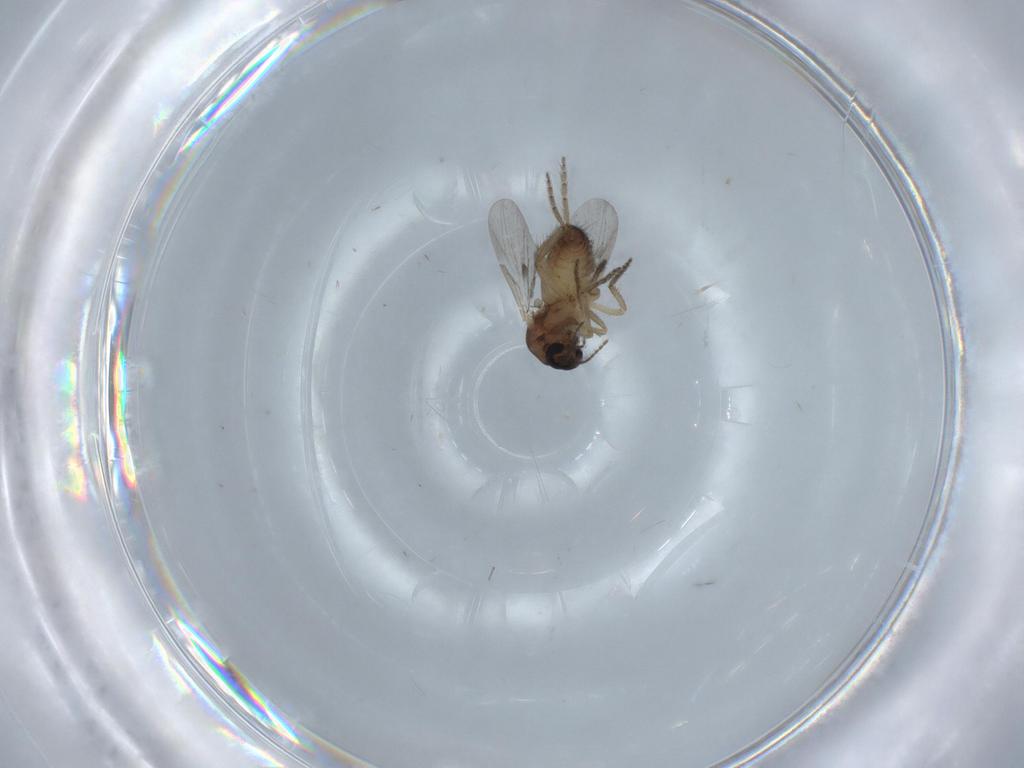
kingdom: Animalia
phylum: Arthropoda
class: Insecta
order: Diptera
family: Ceratopogonidae
